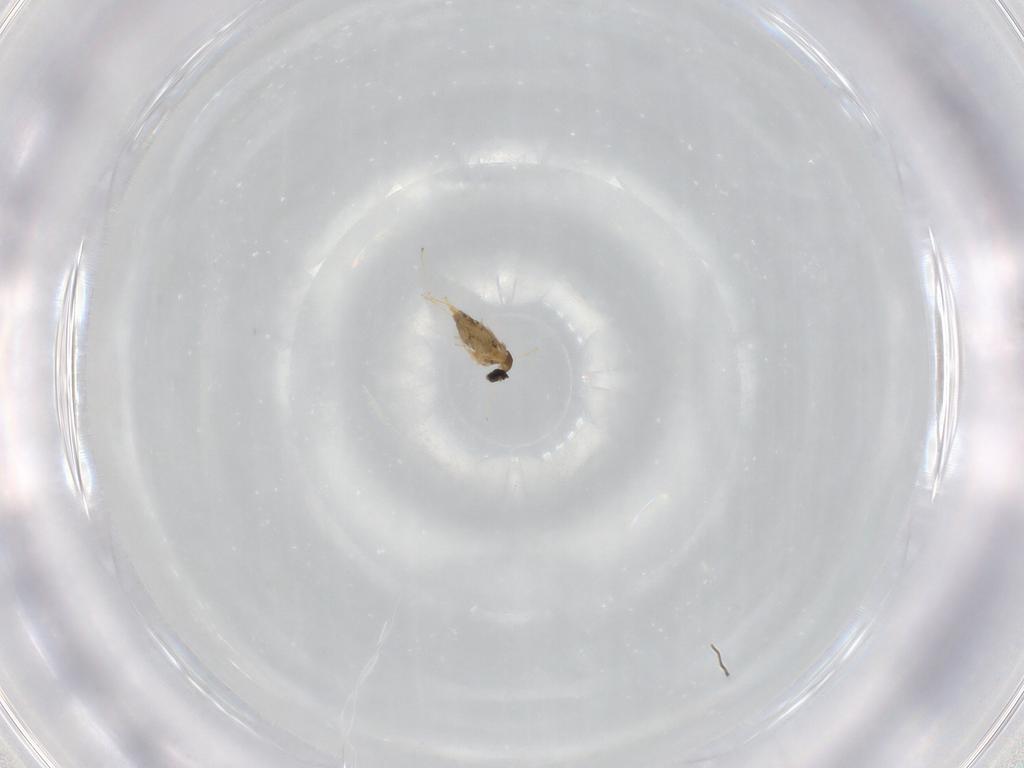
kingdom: Animalia
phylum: Arthropoda
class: Insecta
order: Diptera
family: Cecidomyiidae
